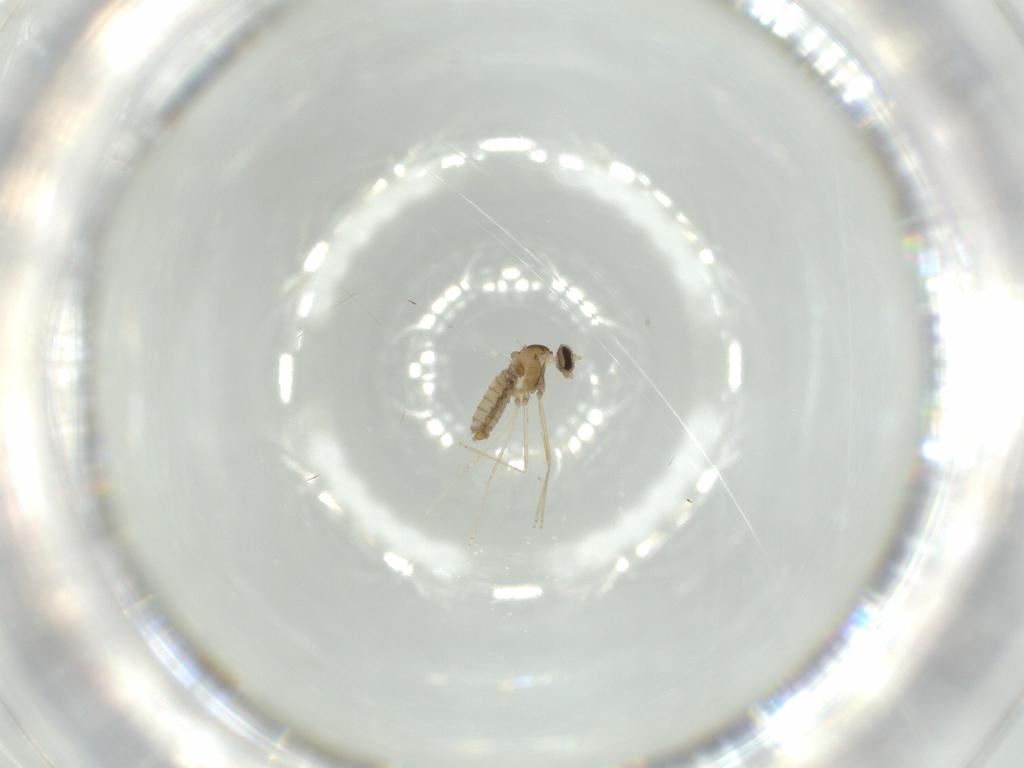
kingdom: Animalia
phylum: Arthropoda
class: Insecta
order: Diptera
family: Cecidomyiidae
